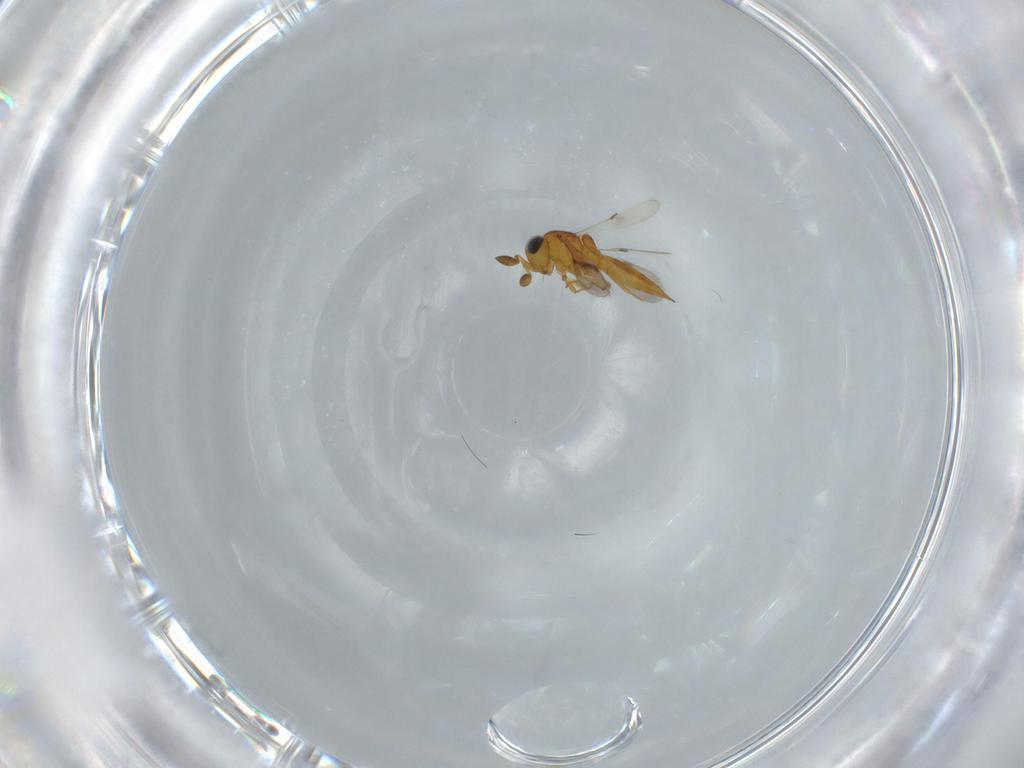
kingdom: Animalia
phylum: Arthropoda
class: Insecta
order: Hymenoptera
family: Scelionidae
